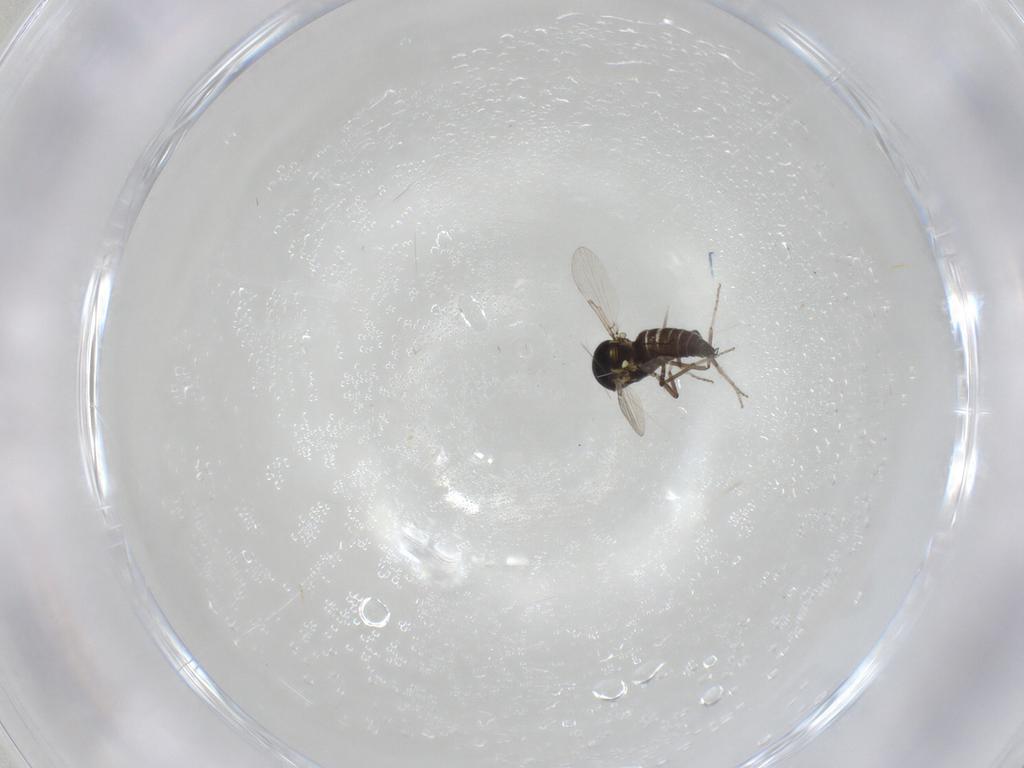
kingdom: Animalia
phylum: Arthropoda
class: Insecta
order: Diptera
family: Ceratopogonidae
